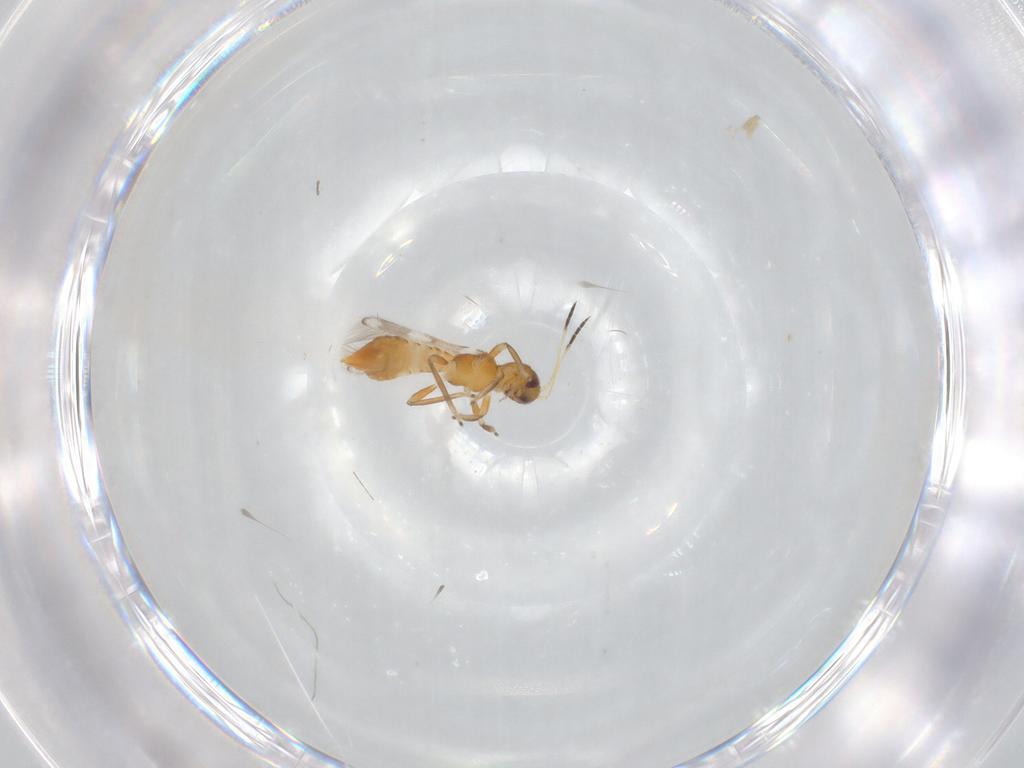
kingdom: Animalia
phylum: Arthropoda
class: Insecta
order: Thysanoptera
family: Aeolothripidae
